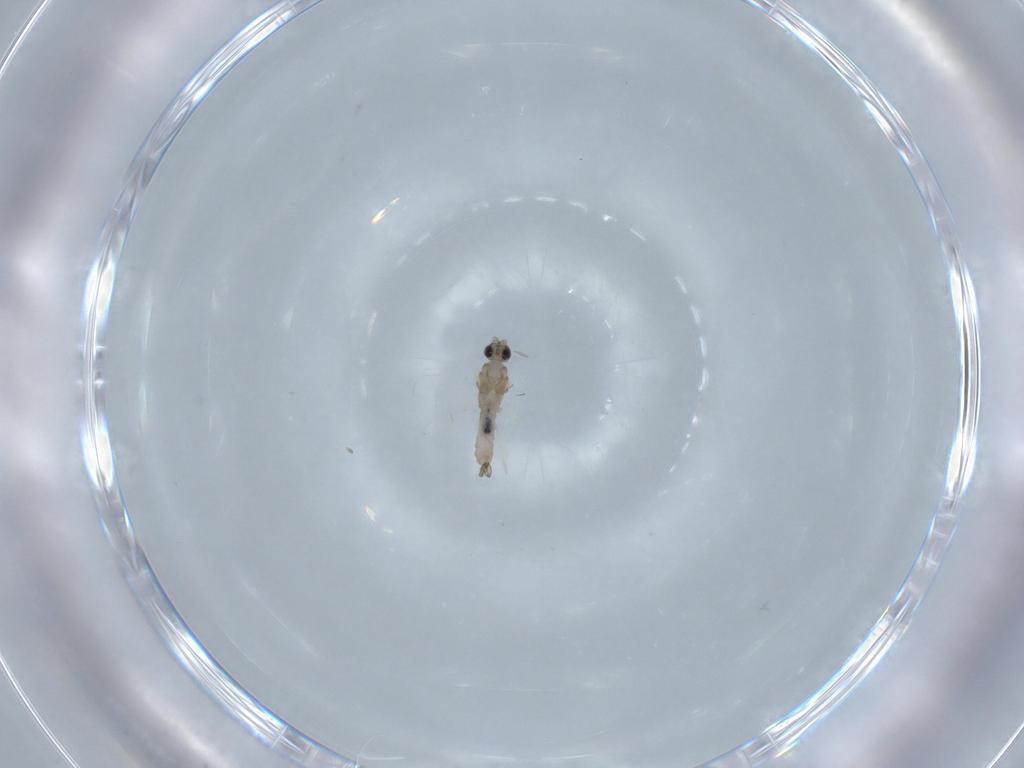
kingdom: Animalia
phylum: Arthropoda
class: Insecta
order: Diptera
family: Cecidomyiidae
